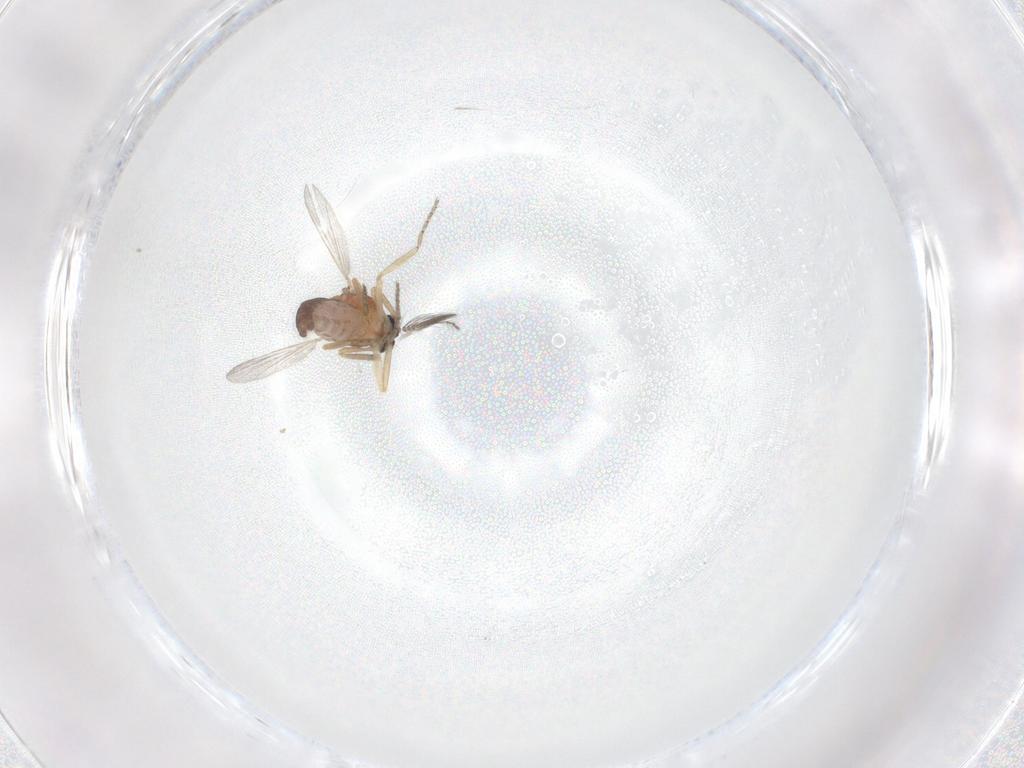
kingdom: Animalia
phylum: Arthropoda
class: Insecta
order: Diptera
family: Ceratopogonidae
